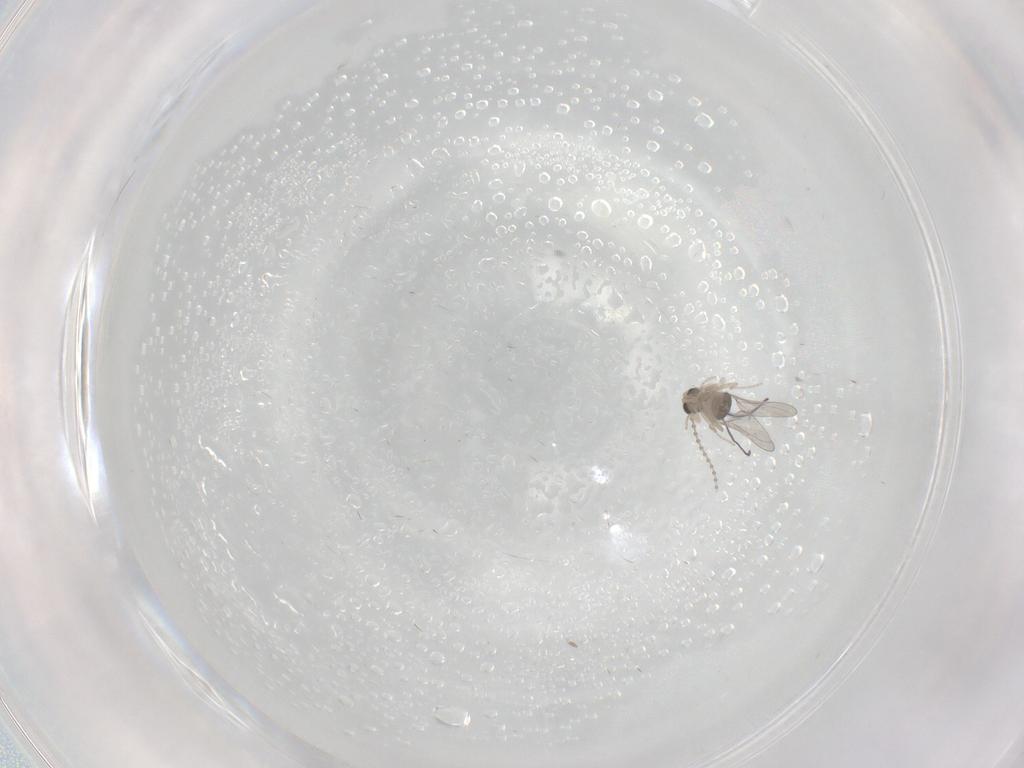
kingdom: Animalia
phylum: Arthropoda
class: Insecta
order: Diptera
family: Cecidomyiidae
